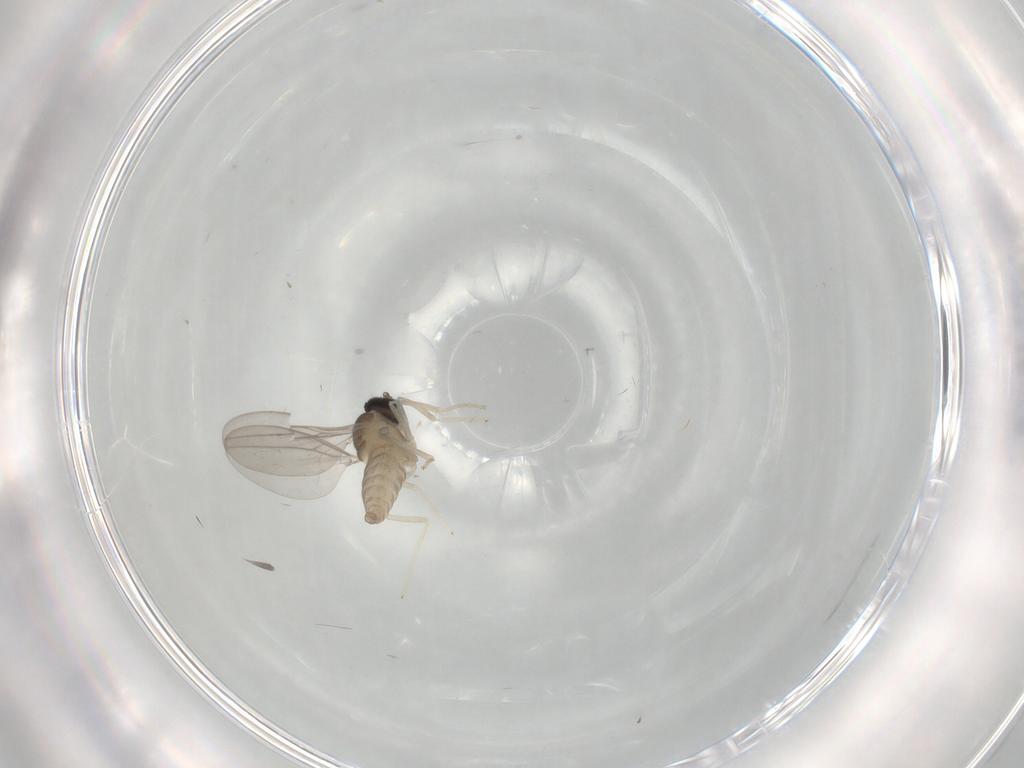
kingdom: Animalia
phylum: Arthropoda
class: Insecta
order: Diptera
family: Cecidomyiidae
